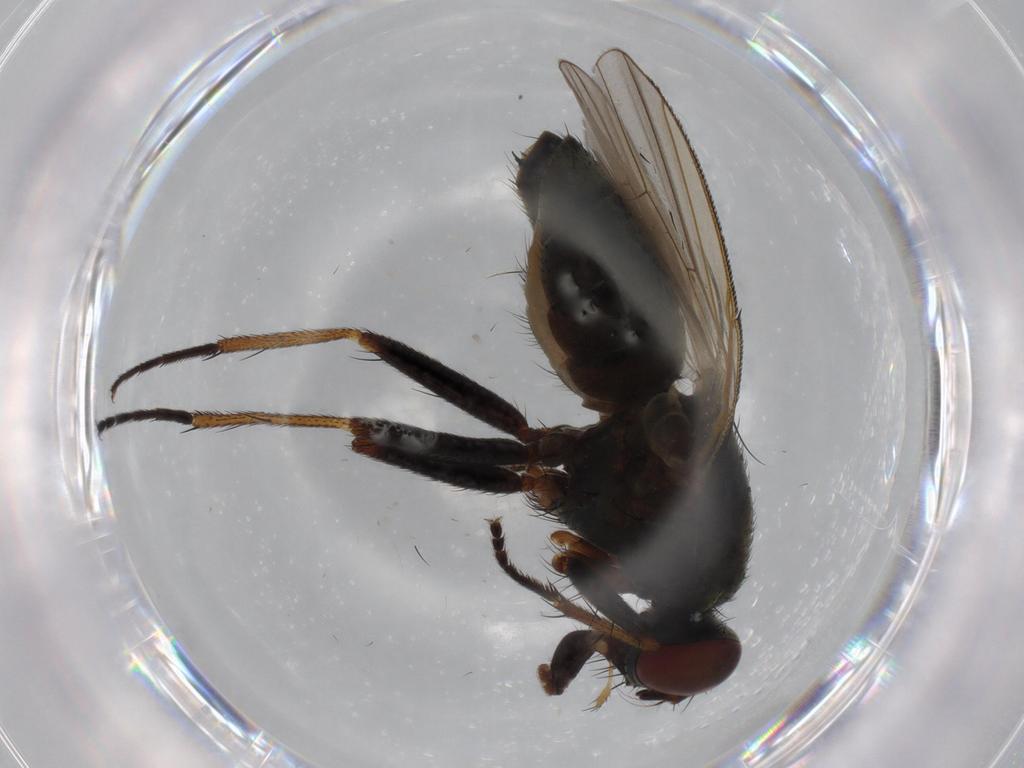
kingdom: Animalia
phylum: Arthropoda
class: Insecta
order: Diptera
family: Muscidae
